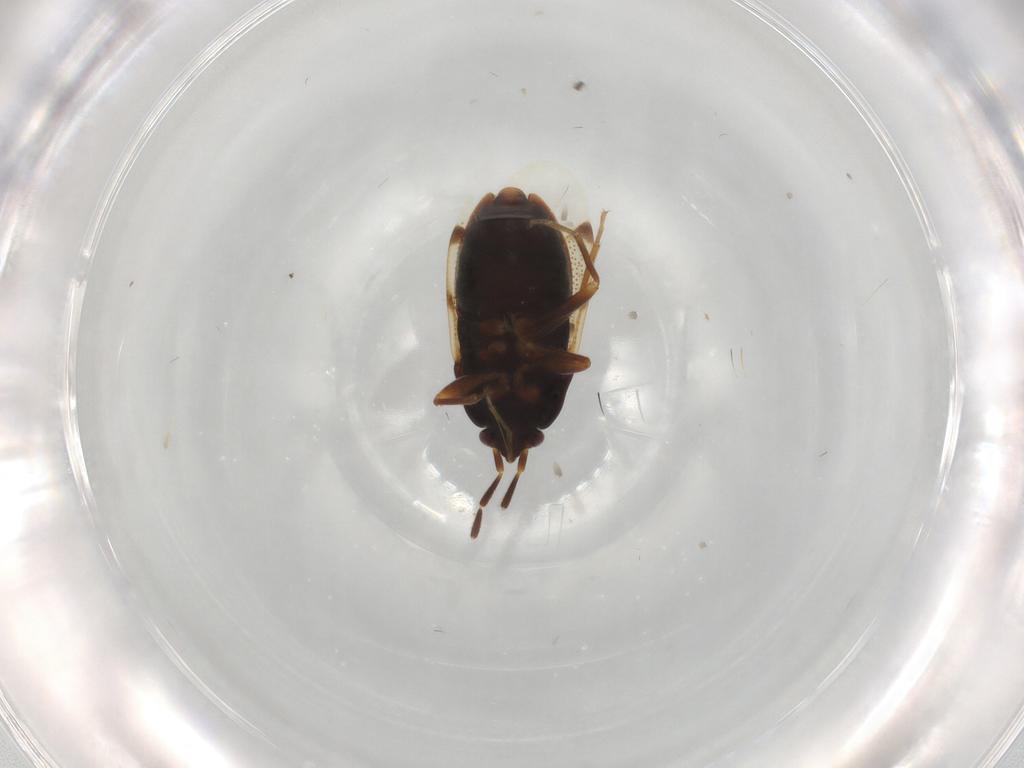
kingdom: Animalia
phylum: Arthropoda
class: Insecta
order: Hemiptera
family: Rhyparochromidae
